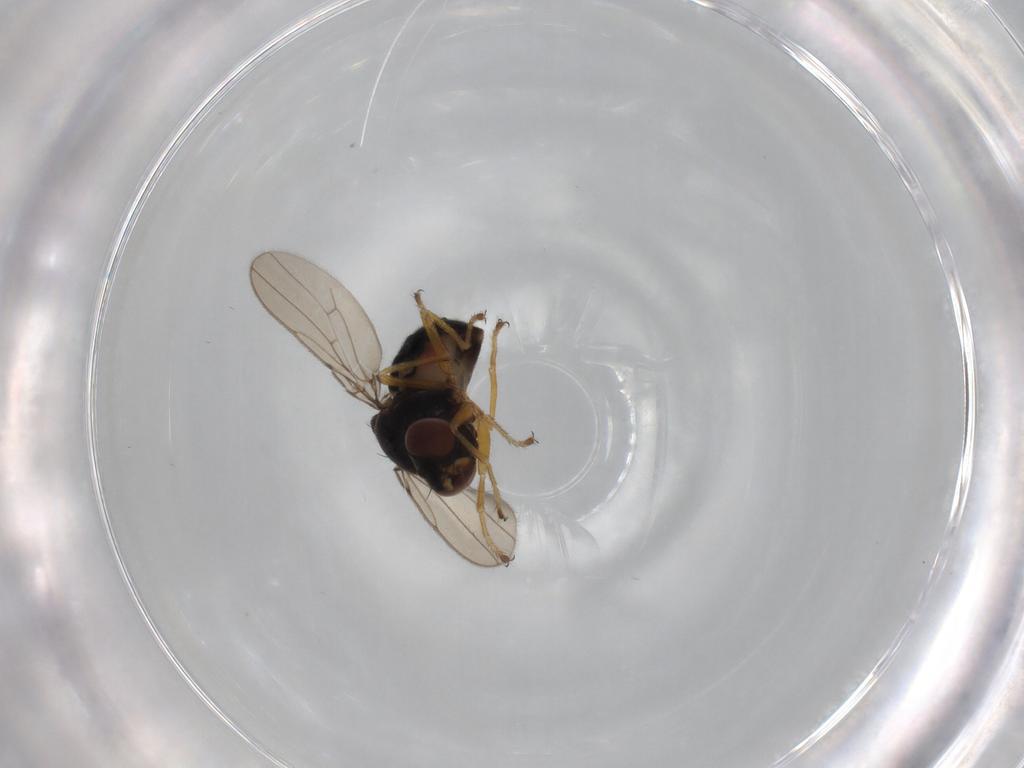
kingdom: Animalia
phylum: Arthropoda
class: Insecta
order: Diptera
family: Ephydridae
